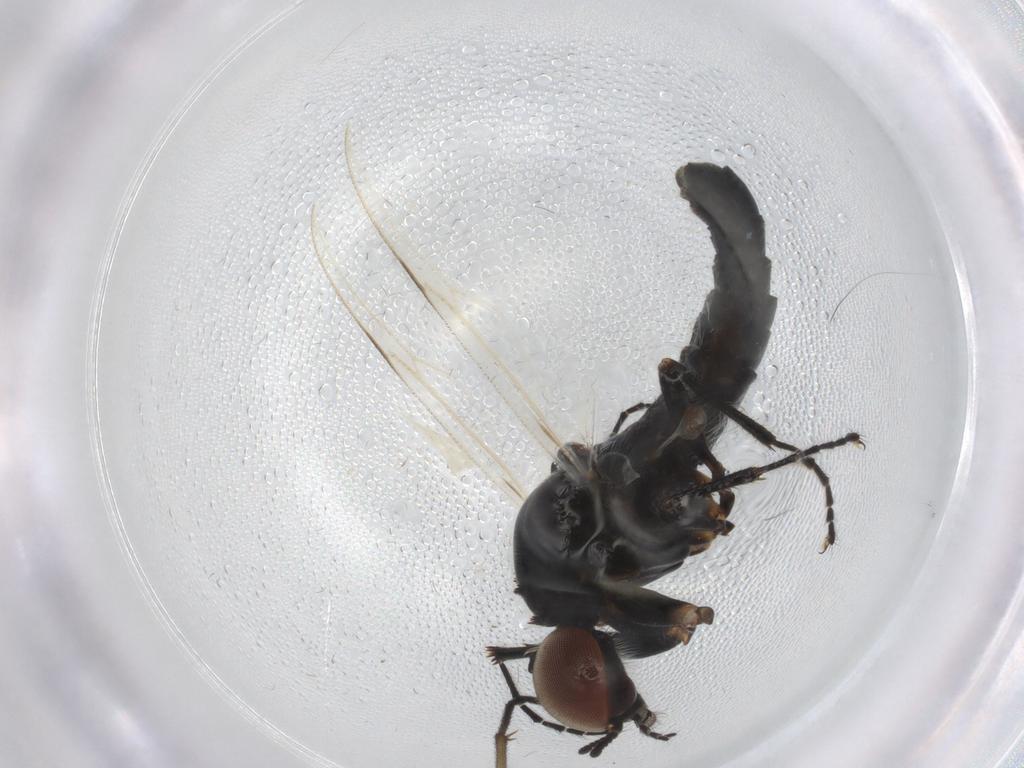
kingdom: Animalia
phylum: Arthropoda
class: Insecta
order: Diptera
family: Cecidomyiidae
